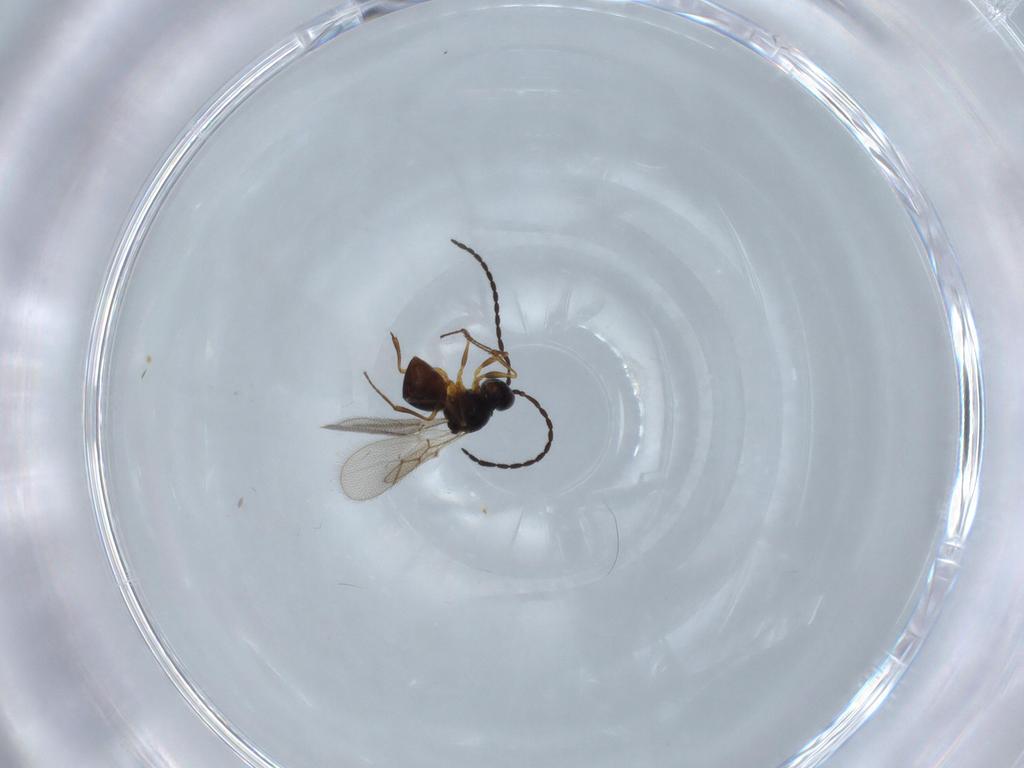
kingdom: Animalia
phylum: Arthropoda
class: Insecta
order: Hymenoptera
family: Figitidae
